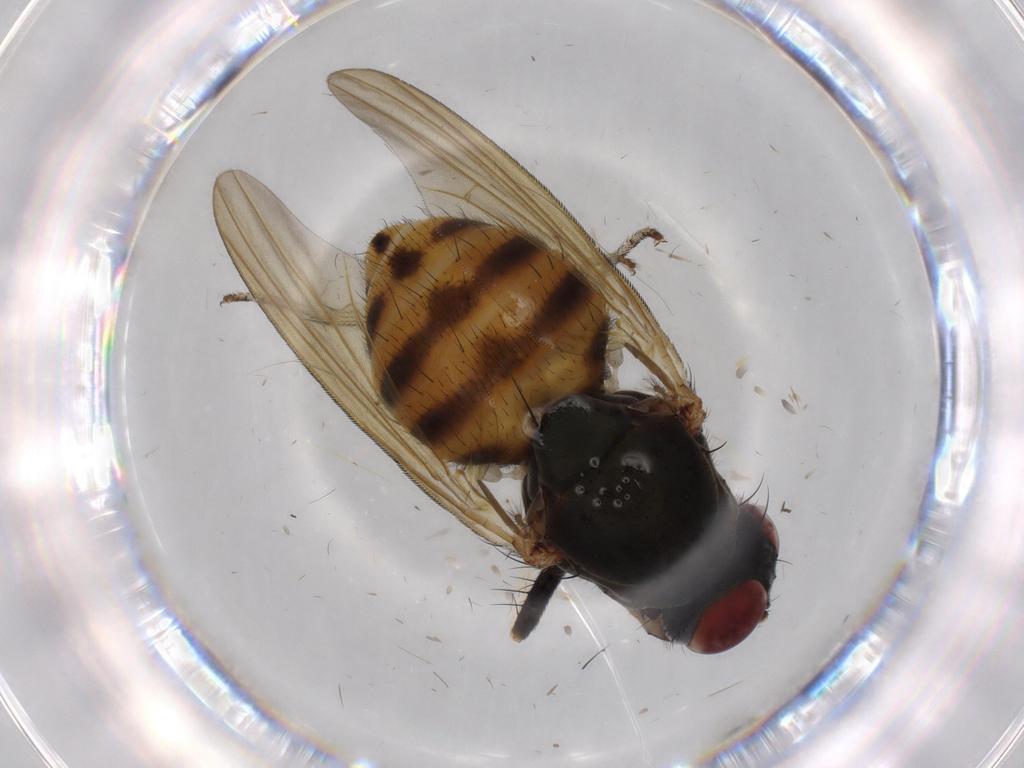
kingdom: Animalia
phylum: Arthropoda
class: Insecta
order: Diptera
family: Sciaridae
